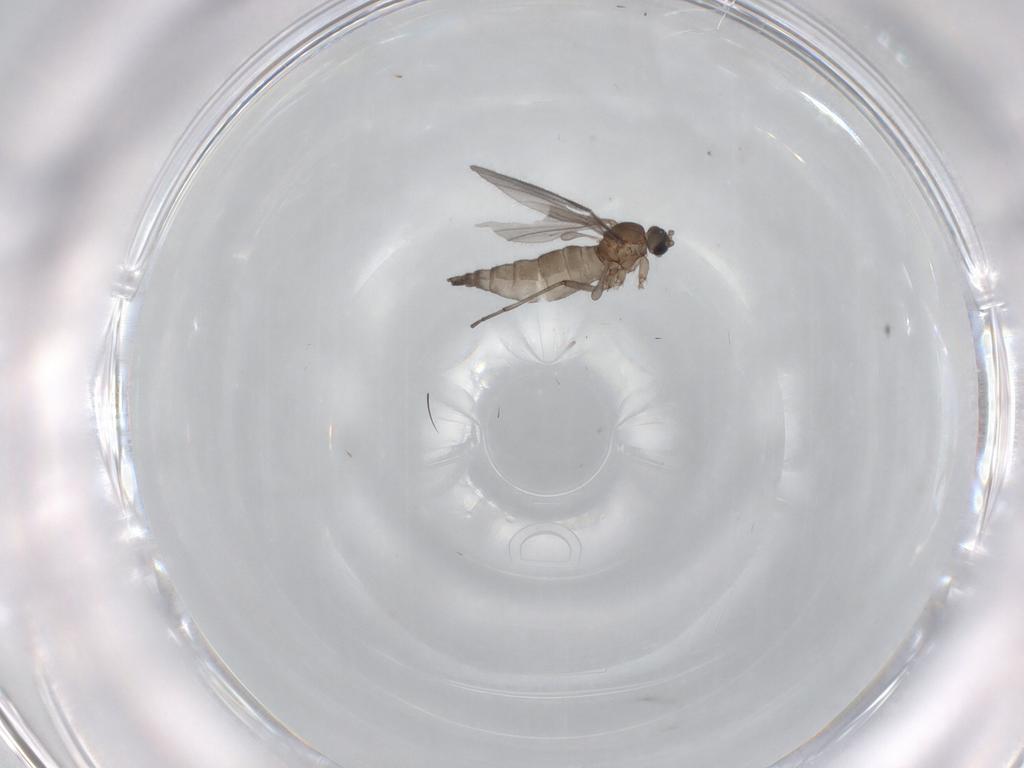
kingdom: Animalia
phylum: Arthropoda
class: Insecta
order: Diptera
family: Sciaridae
